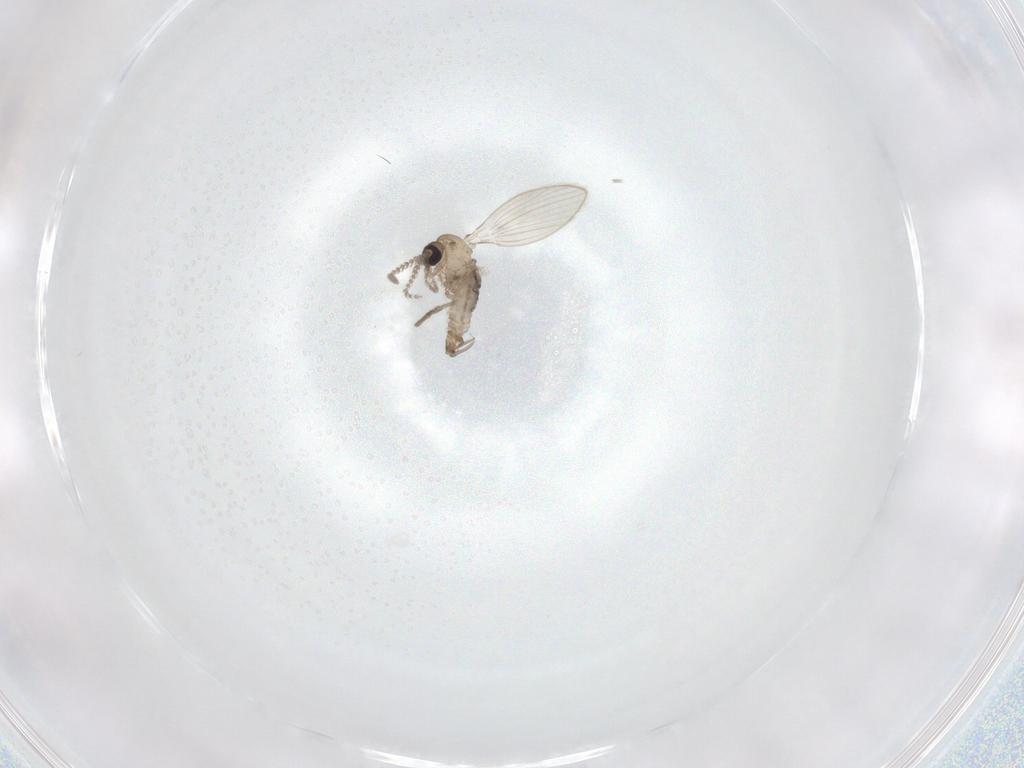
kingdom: Animalia
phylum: Arthropoda
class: Insecta
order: Diptera
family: Psychodidae
